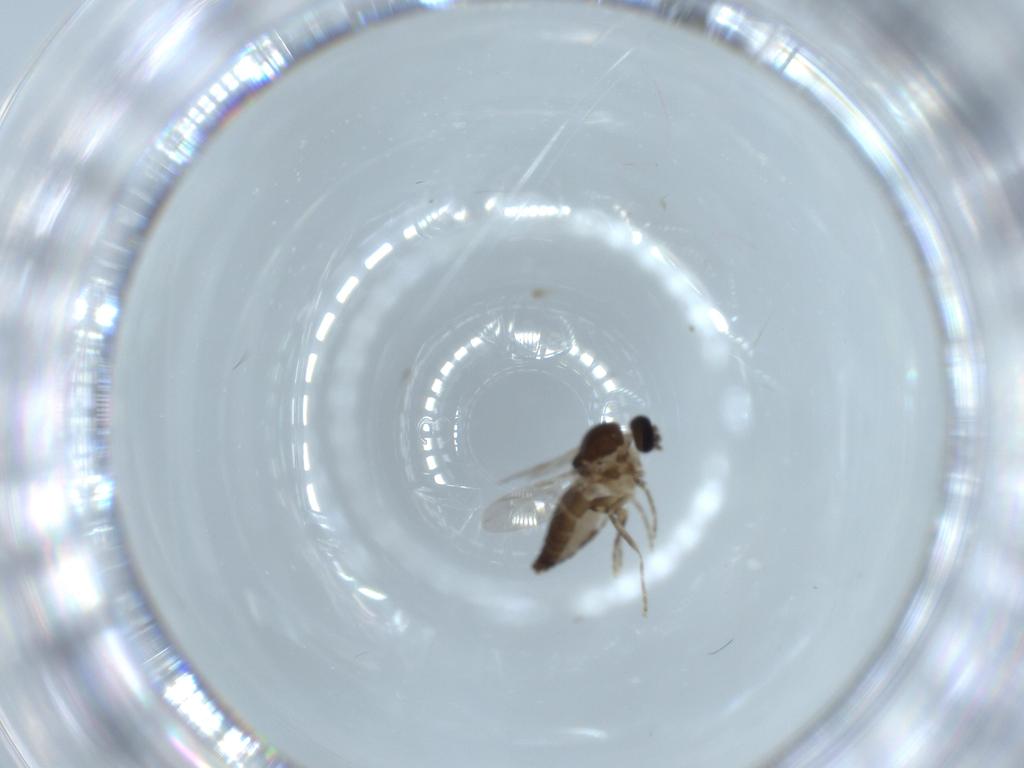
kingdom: Animalia
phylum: Arthropoda
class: Insecta
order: Diptera
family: Ceratopogonidae
